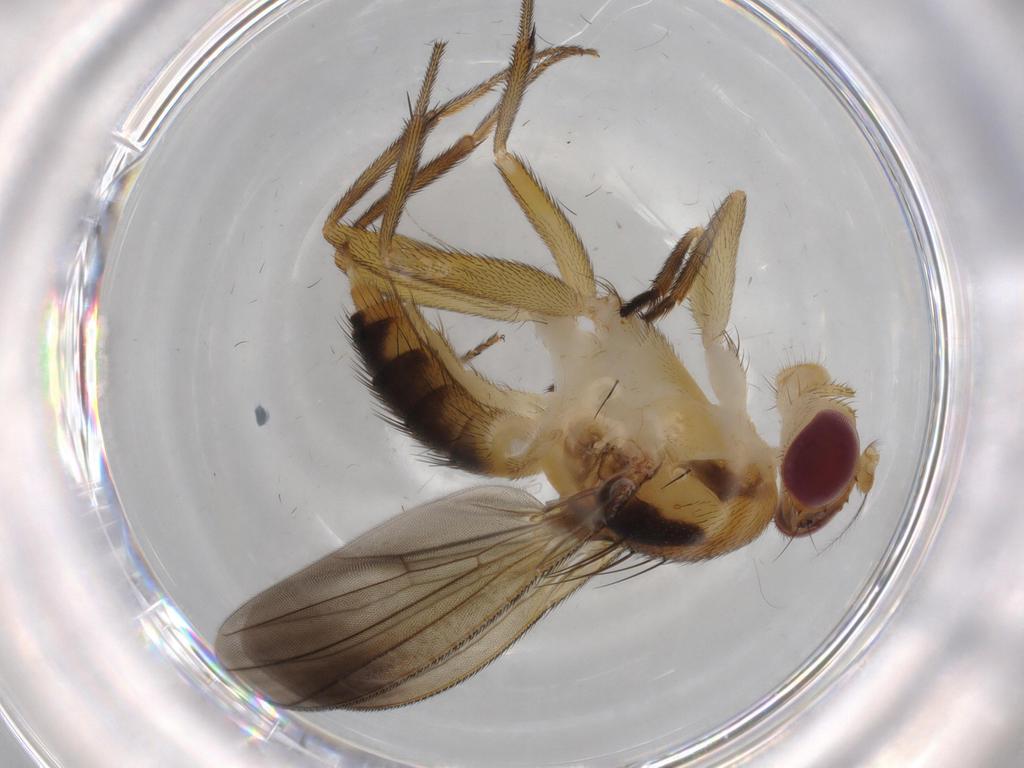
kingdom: Animalia
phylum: Arthropoda
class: Insecta
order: Diptera
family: Clusiidae
